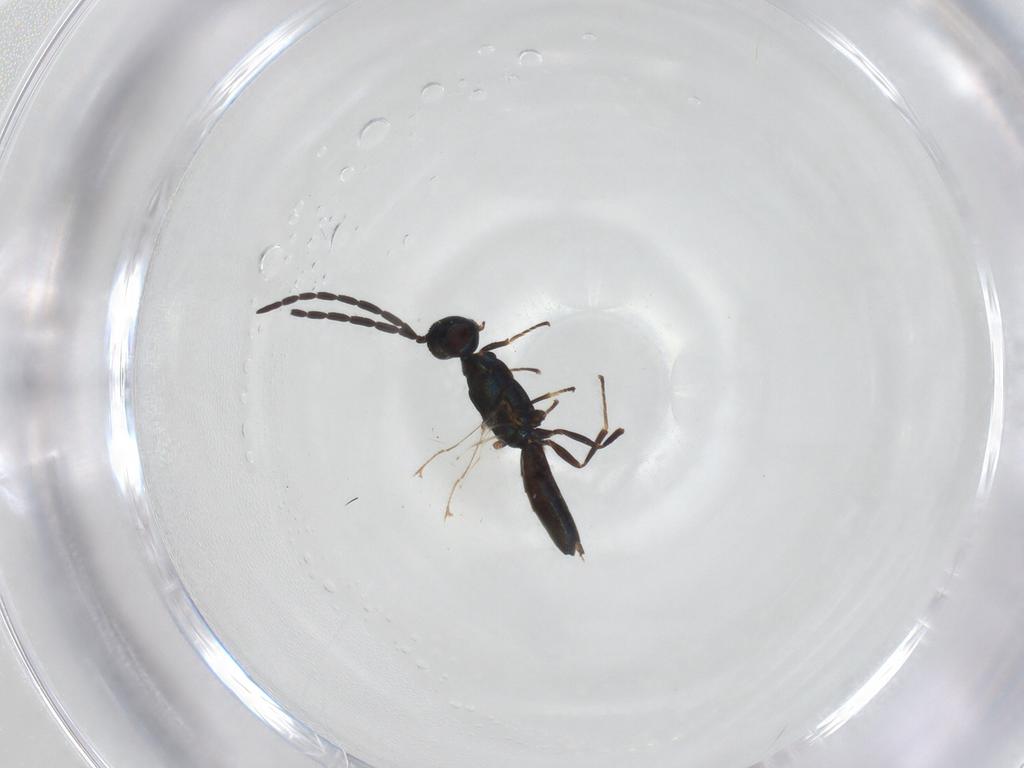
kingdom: Animalia
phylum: Arthropoda
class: Insecta
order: Hymenoptera
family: Eupelmidae
